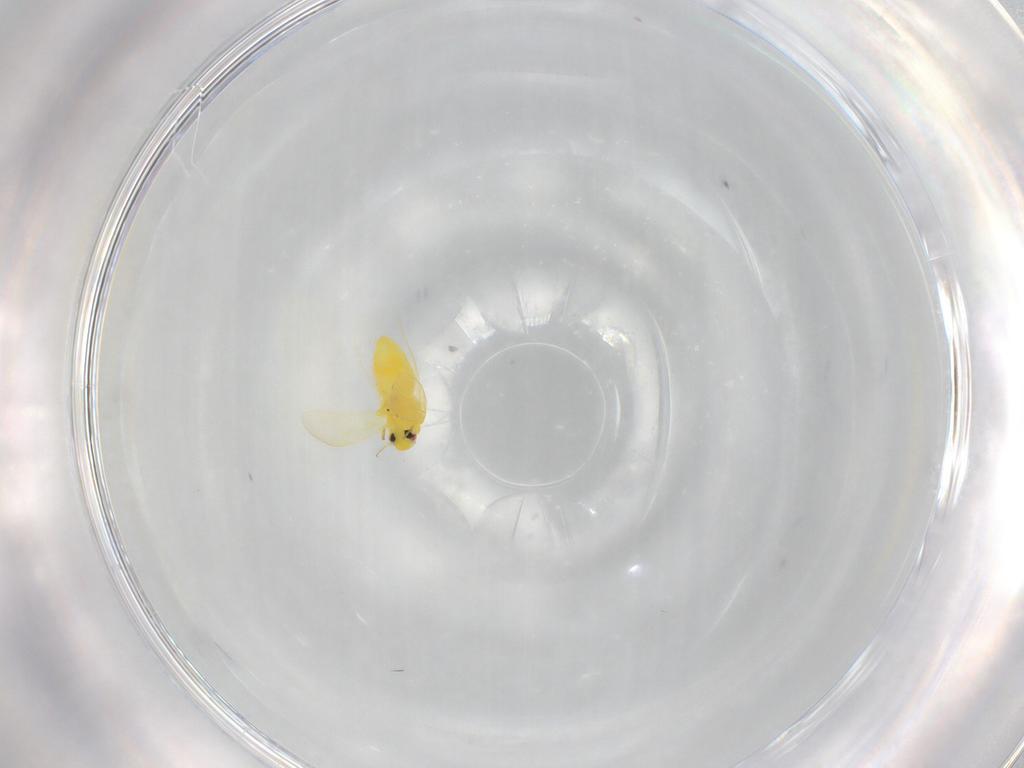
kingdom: Animalia
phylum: Arthropoda
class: Insecta
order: Hemiptera
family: Aleyrodidae
